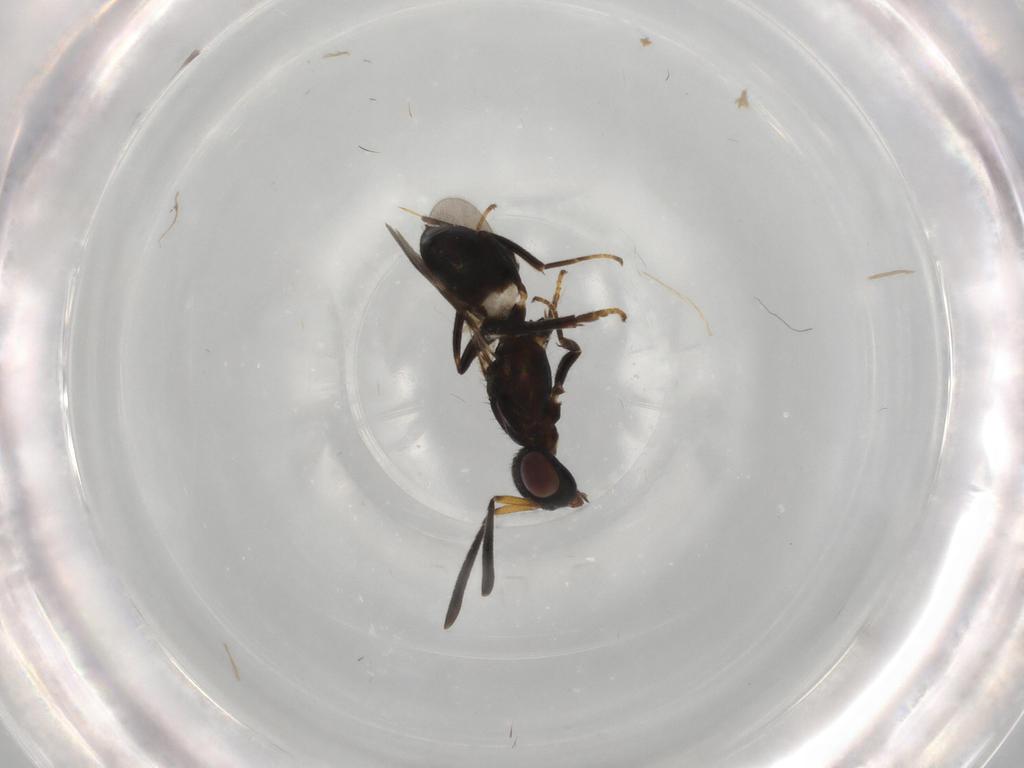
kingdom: Animalia
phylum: Arthropoda
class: Insecta
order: Hymenoptera
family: Eupelmidae
